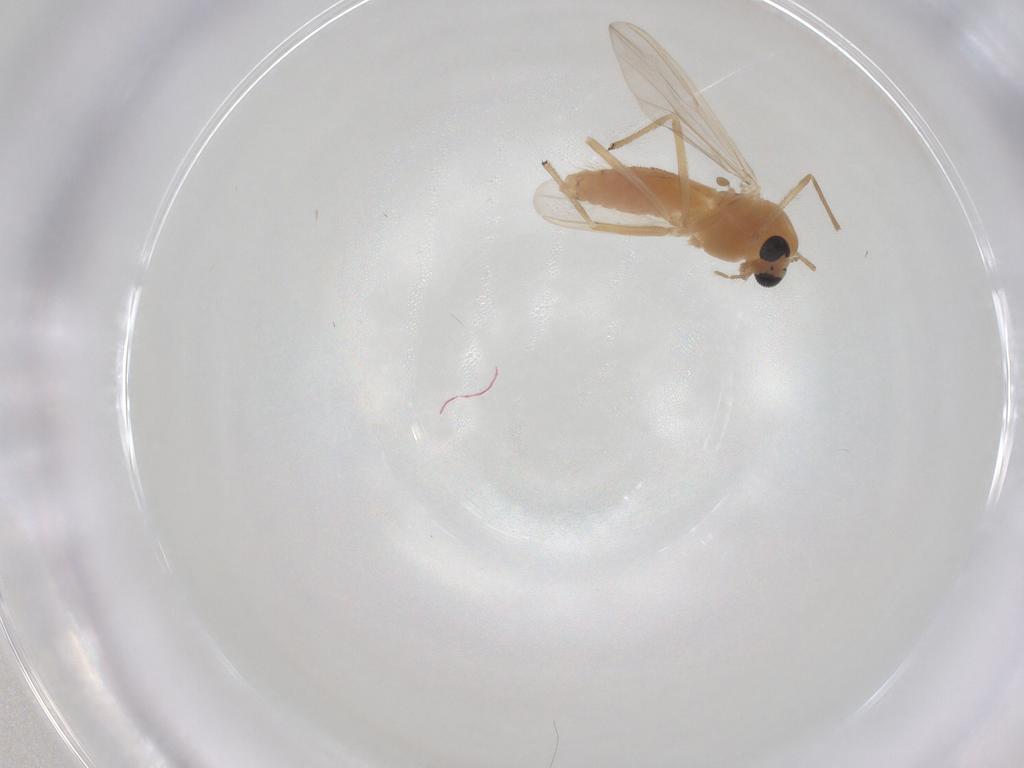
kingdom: Animalia
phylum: Arthropoda
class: Insecta
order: Diptera
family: Chironomidae
